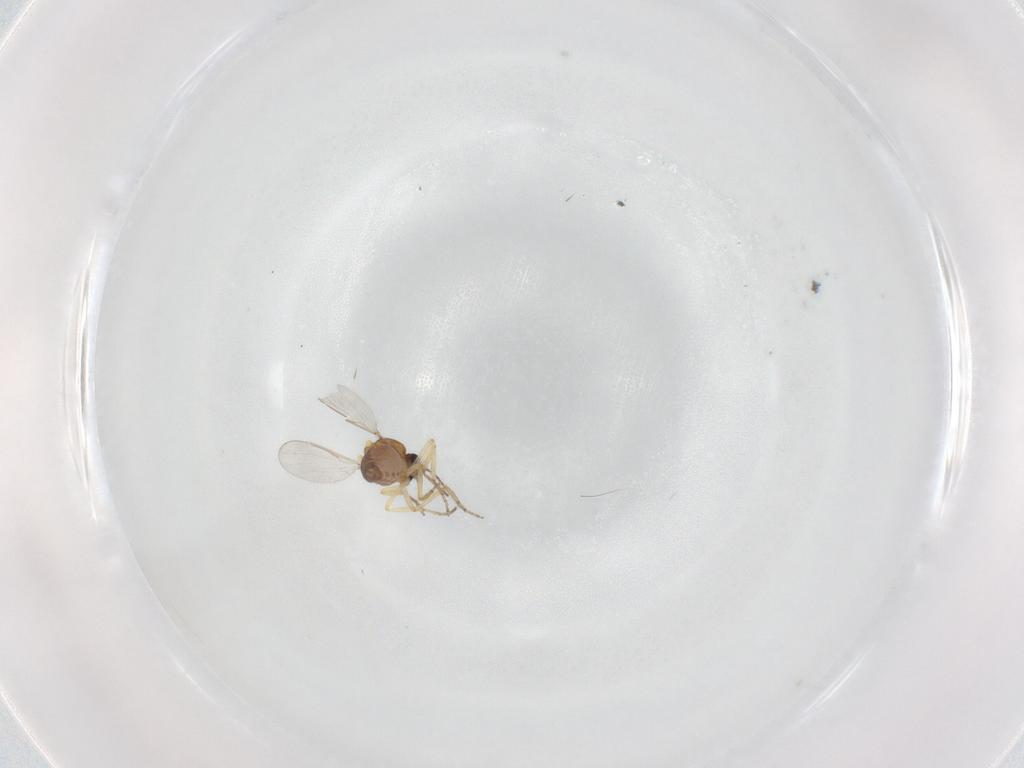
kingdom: Animalia
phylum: Arthropoda
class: Insecta
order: Diptera
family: Ceratopogonidae
